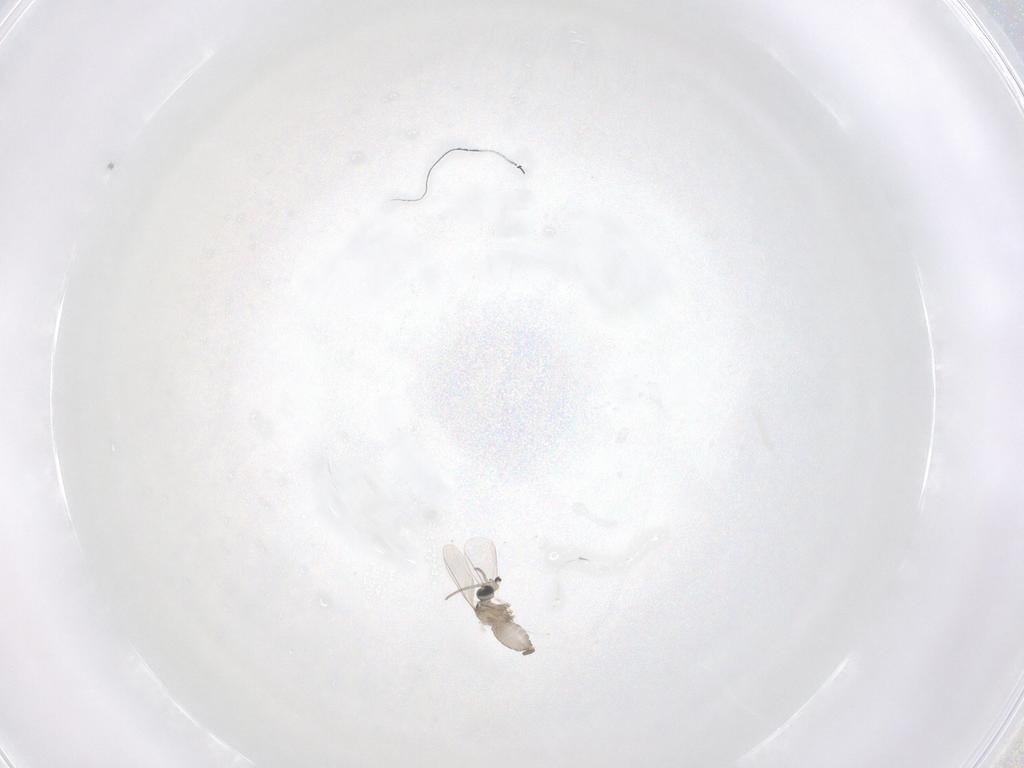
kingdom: Animalia
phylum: Arthropoda
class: Insecta
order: Diptera
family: Cecidomyiidae
